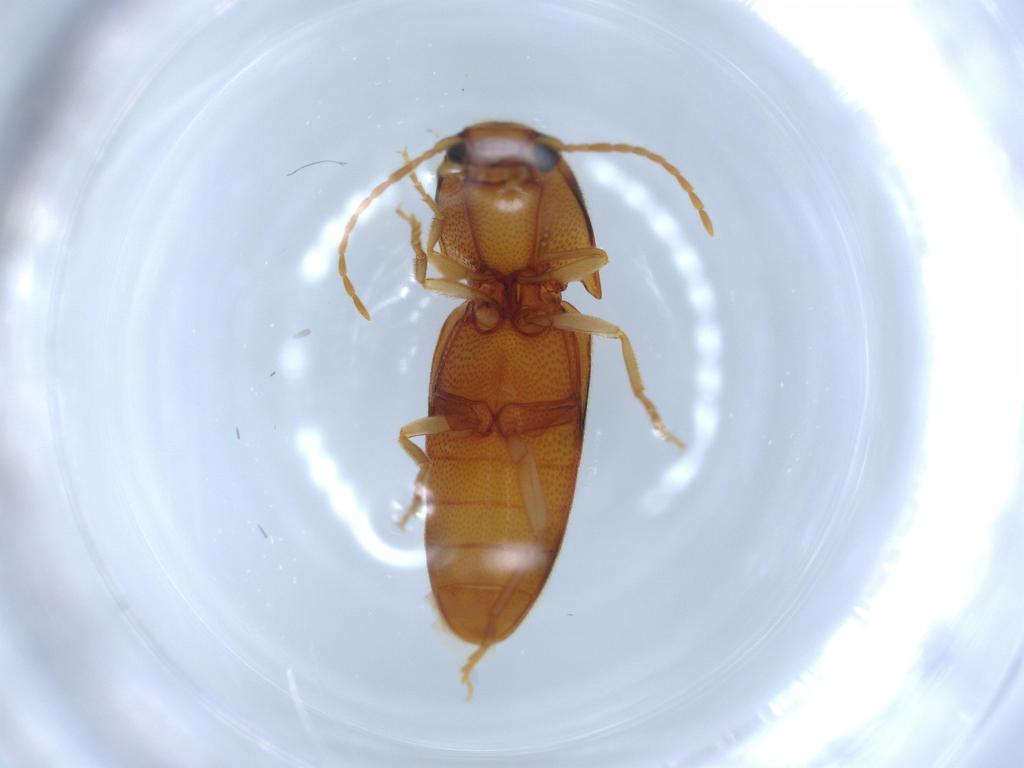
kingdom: Animalia
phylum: Arthropoda
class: Insecta
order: Coleoptera
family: Elateridae
